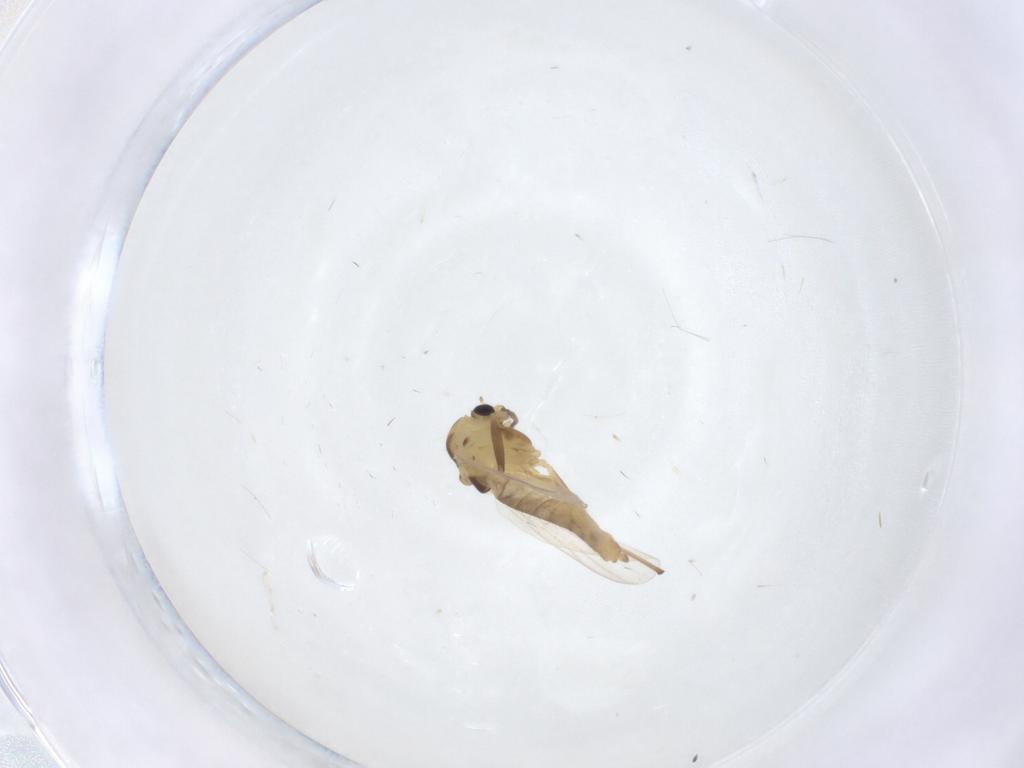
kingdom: Animalia
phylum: Arthropoda
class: Insecta
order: Diptera
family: Chironomidae
